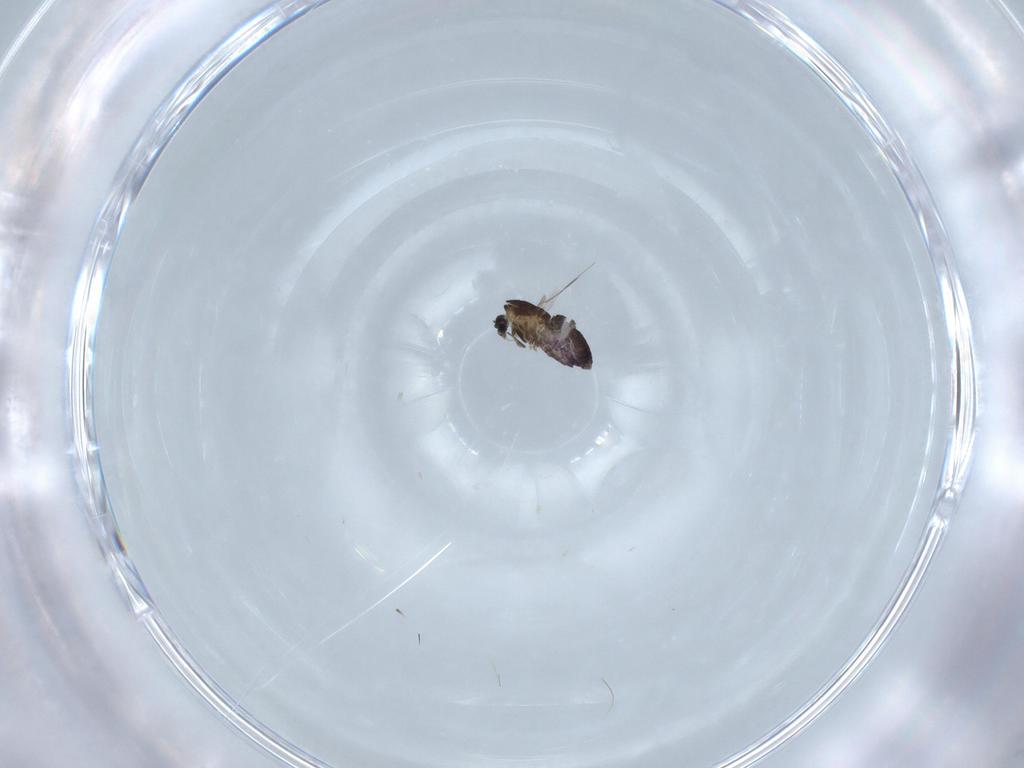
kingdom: Animalia
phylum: Arthropoda
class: Insecta
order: Diptera
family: Chironomidae
